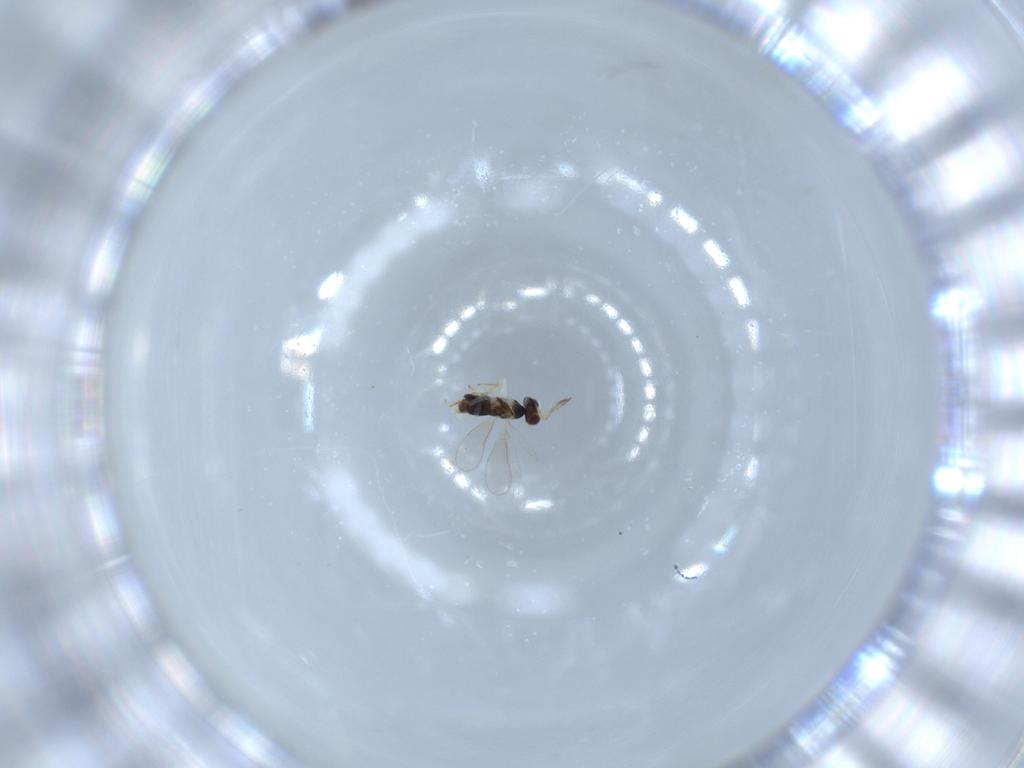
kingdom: Animalia
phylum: Arthropoda
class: Insecta
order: Hymenoptera
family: Aphelinidae
